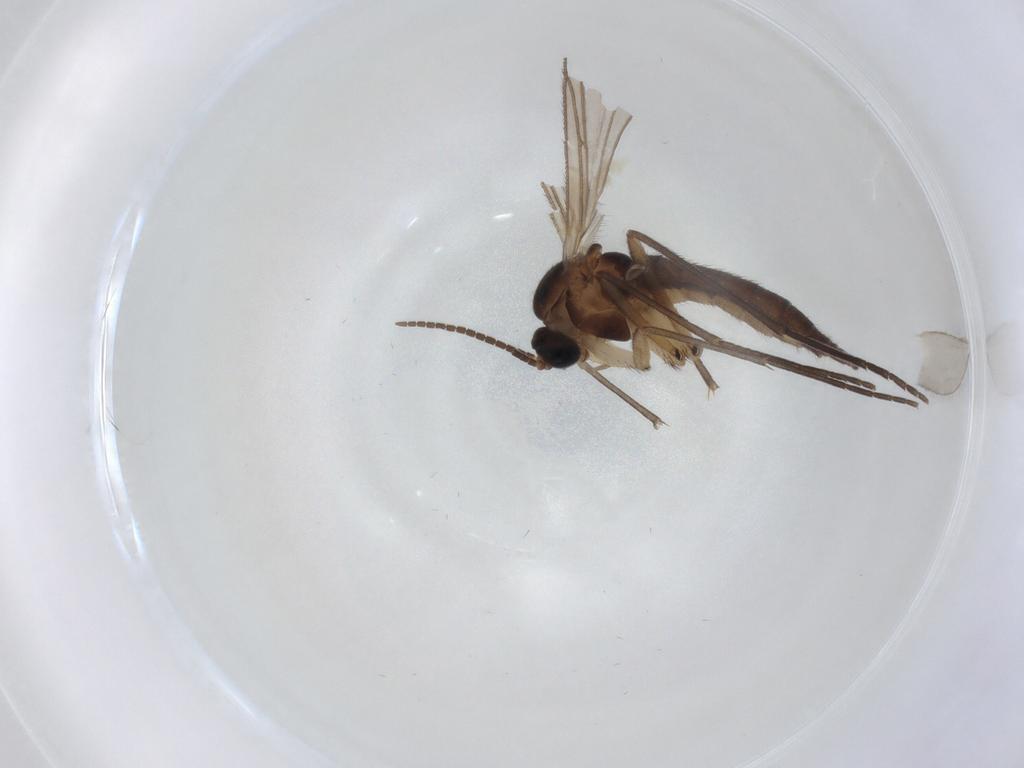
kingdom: Animalia
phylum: Arthropoda
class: Insecta
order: Diptera
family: Sciaridae
